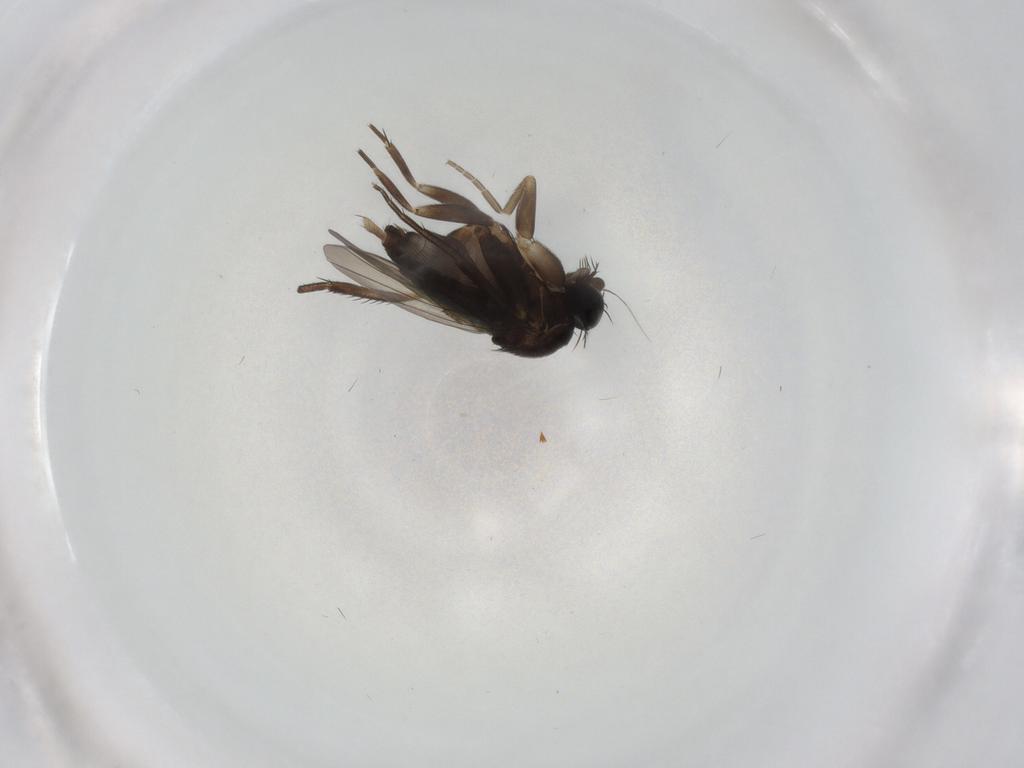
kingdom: Animalia
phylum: Arthropoda
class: Insecta
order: Diptera
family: Phoridae
